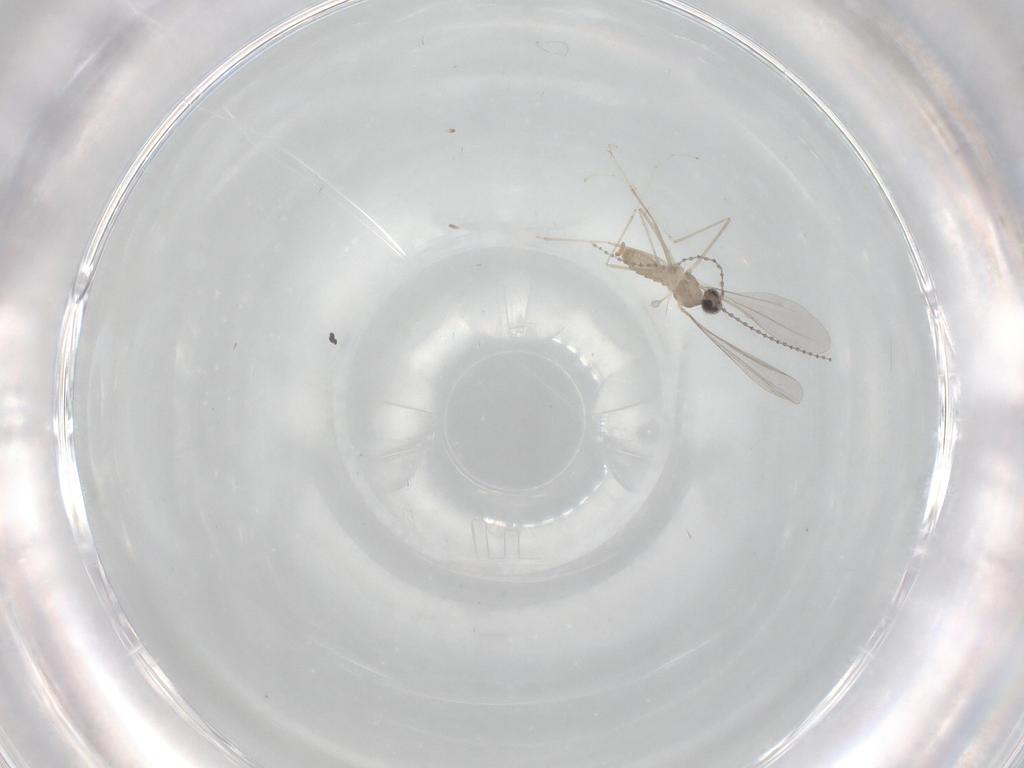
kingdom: Animalia
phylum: Arthropoda
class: Insecta
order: Diptera
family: Cecidomyiidae
